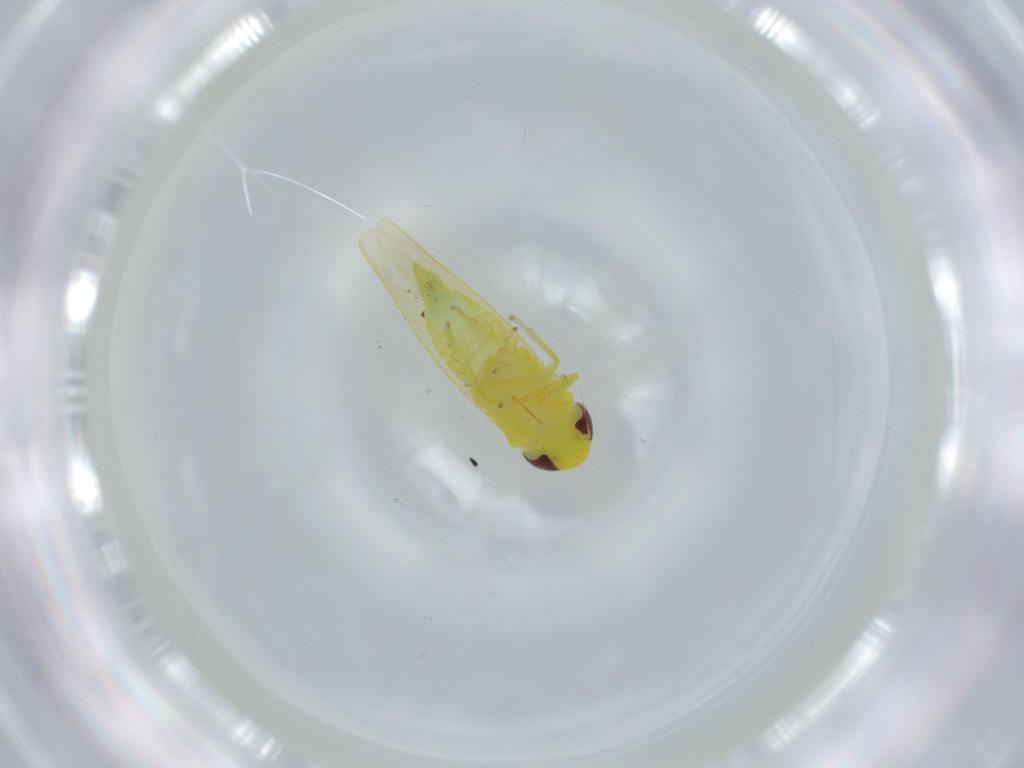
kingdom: Animalia
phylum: Arthropoda
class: Insecta
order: Hemiptera
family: Cicadellidae
